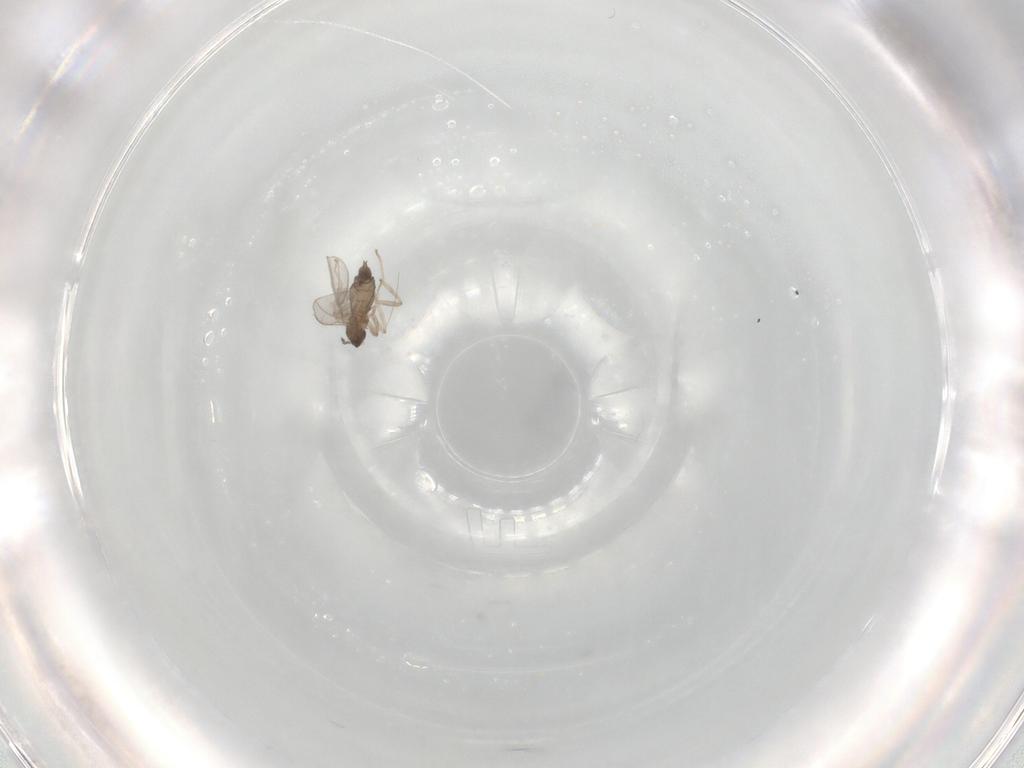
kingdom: Animalia
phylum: Arthropoda
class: Insecta
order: Diptera
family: Cecidomyiidae
